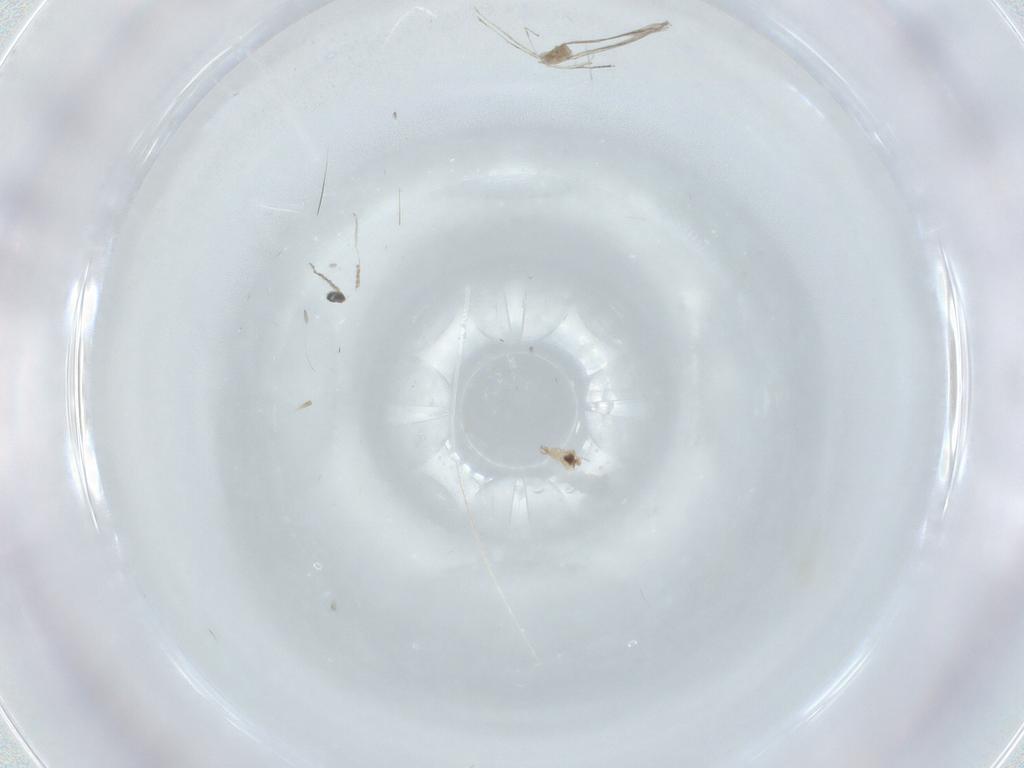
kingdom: Animalia
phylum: Arthropoda
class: Insecta
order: Diptera
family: Cecidomyiidae
